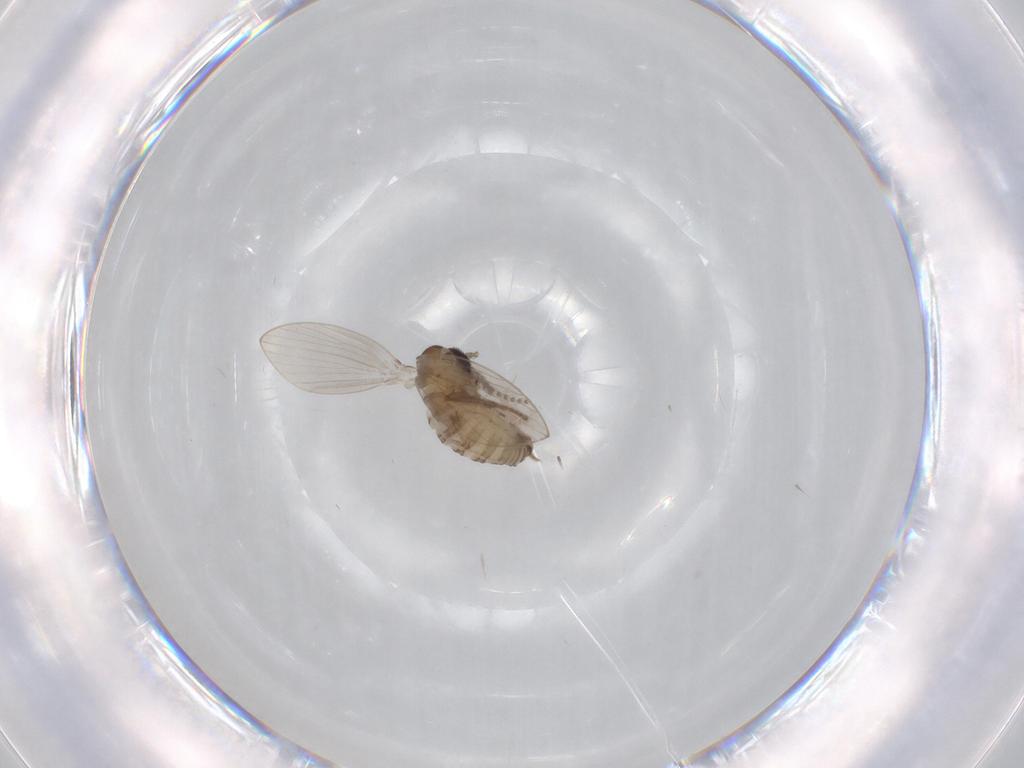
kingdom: Animalia
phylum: Arthropoda
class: Insecta
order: Diptera
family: Psychodidae
